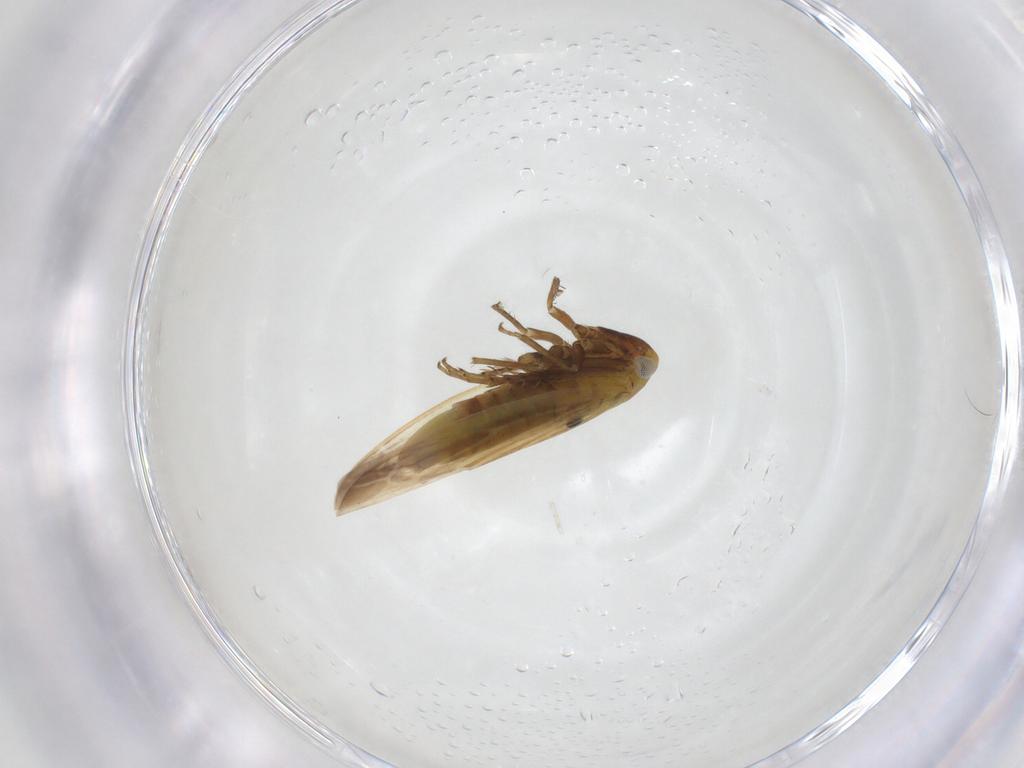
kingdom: Animalia
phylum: Arthropoda
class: Insecta
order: Hemiptera
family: Cicadellidae
